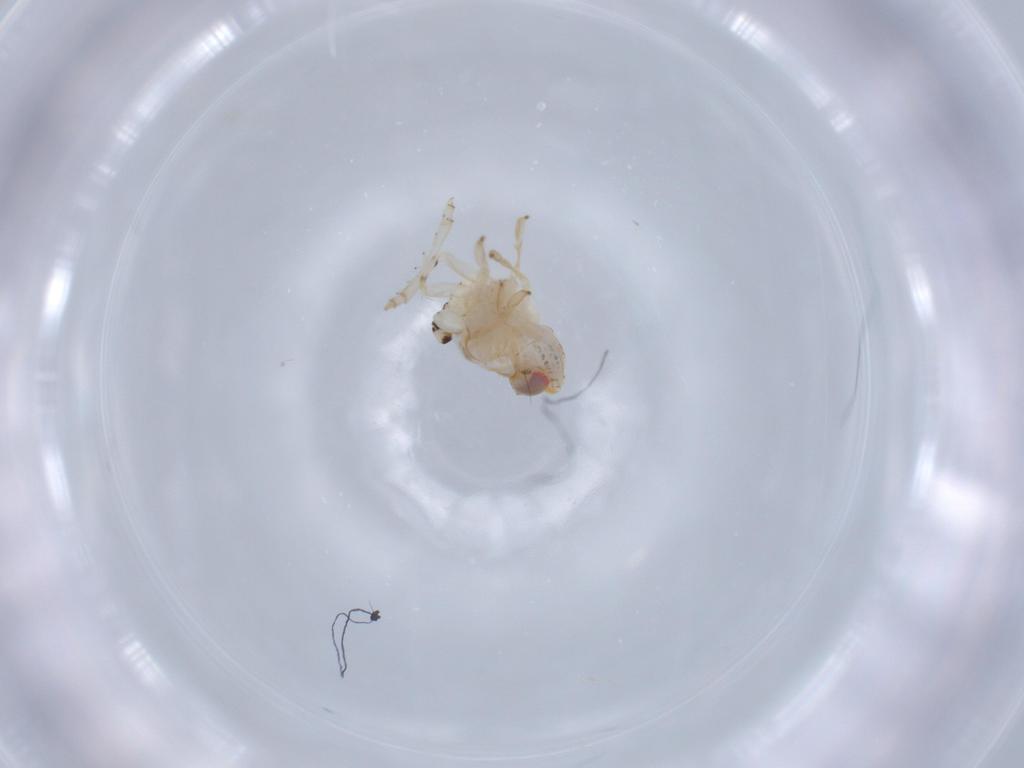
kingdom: Animalia
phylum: Arthropoda
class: Insecta
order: Hemiptera
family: Nogodinidae
